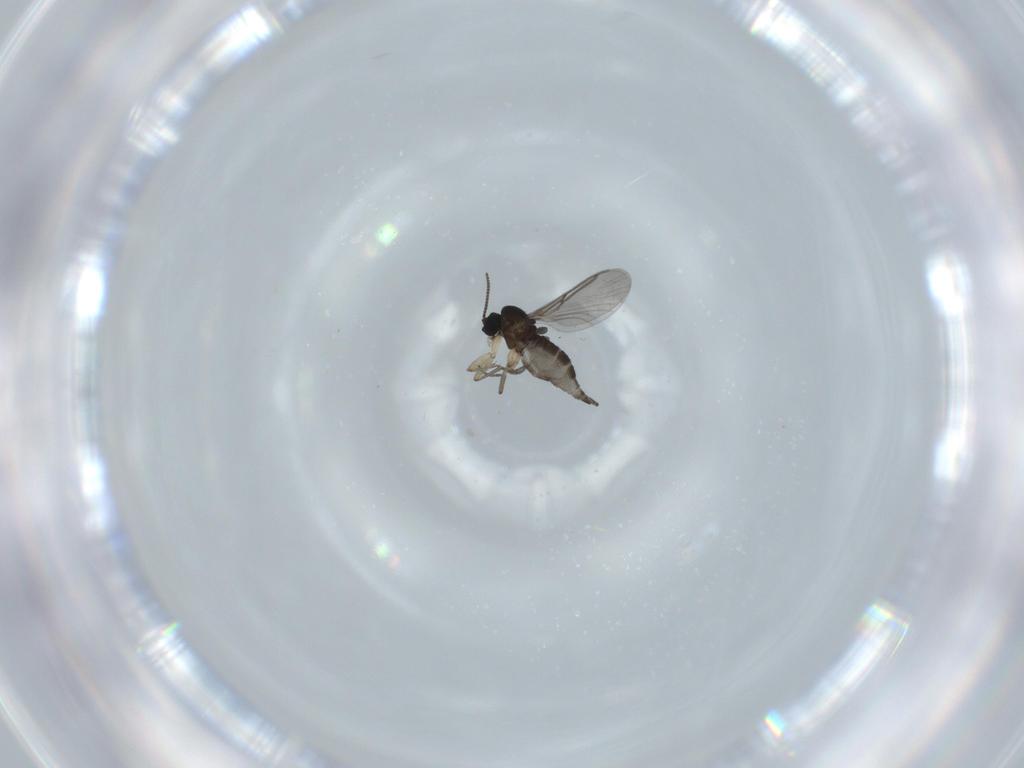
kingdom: Animalia
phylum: Arthropoda
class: Insecta
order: Diptera
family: Sciaridae
